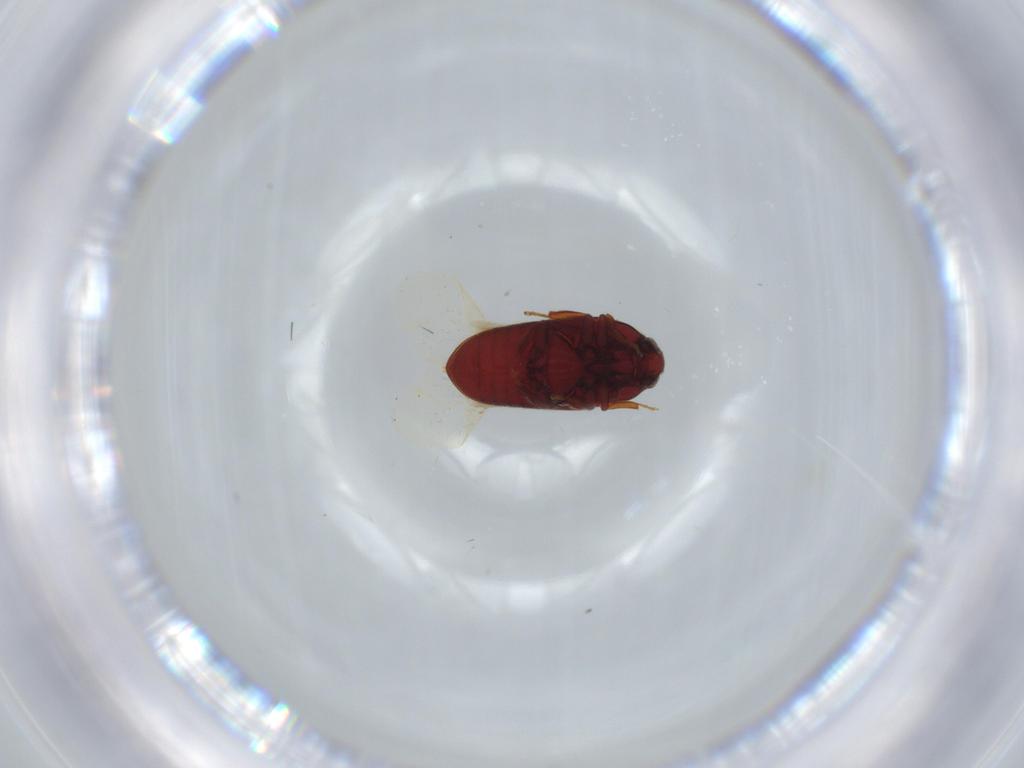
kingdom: Animalia
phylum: Arthropoda
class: Insecta
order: Coleoptera
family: Throscidae
